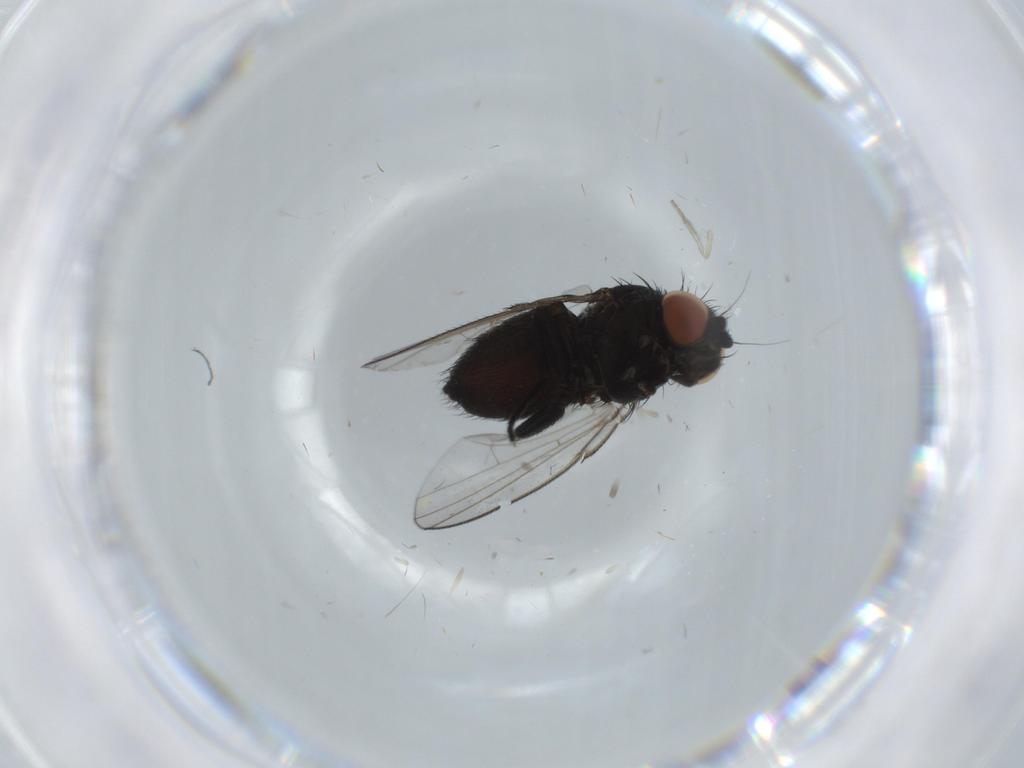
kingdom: Animalia
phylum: Arthropoda
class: Insecta
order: Diptera
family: Milichiidae
